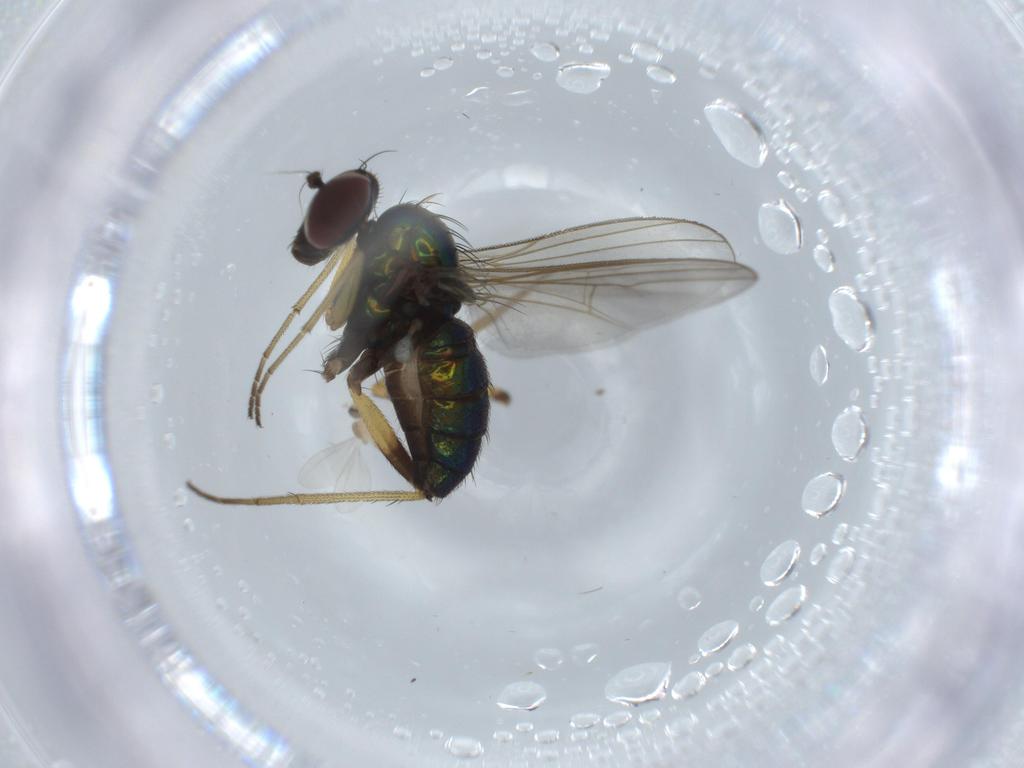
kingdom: Animalia
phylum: Arthropoda
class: Insecta
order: Diptera
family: Cecidomyiidae
